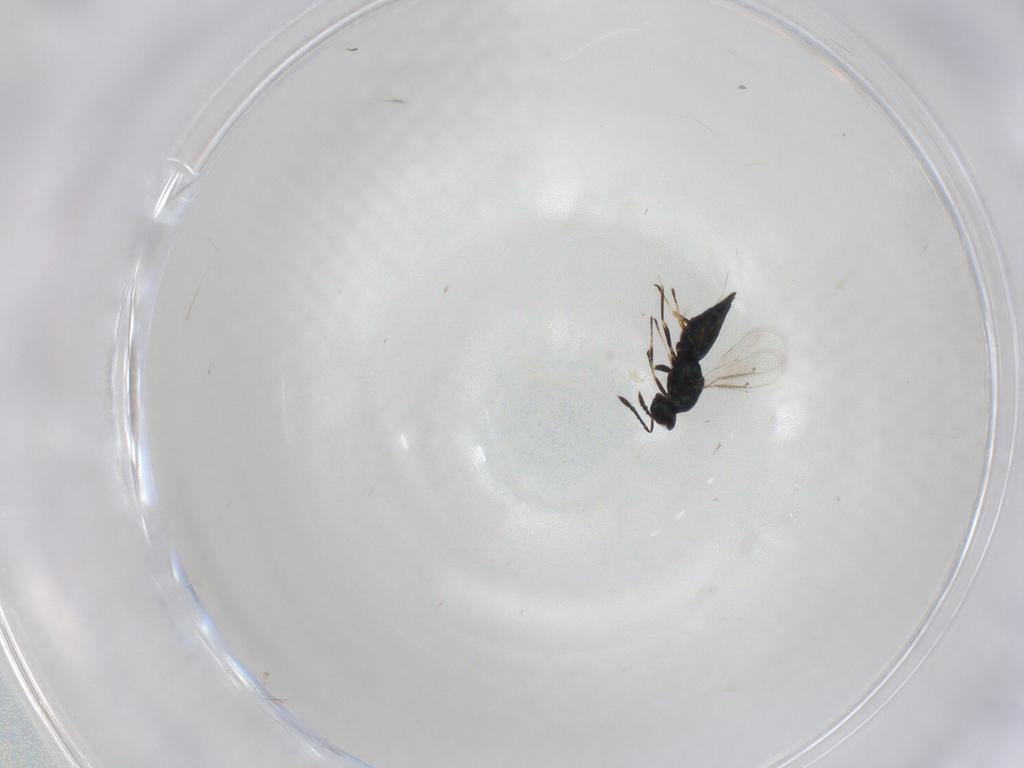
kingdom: Animalia
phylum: Arthropoda
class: Insecta
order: Hymenoptera
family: Eulophidae
